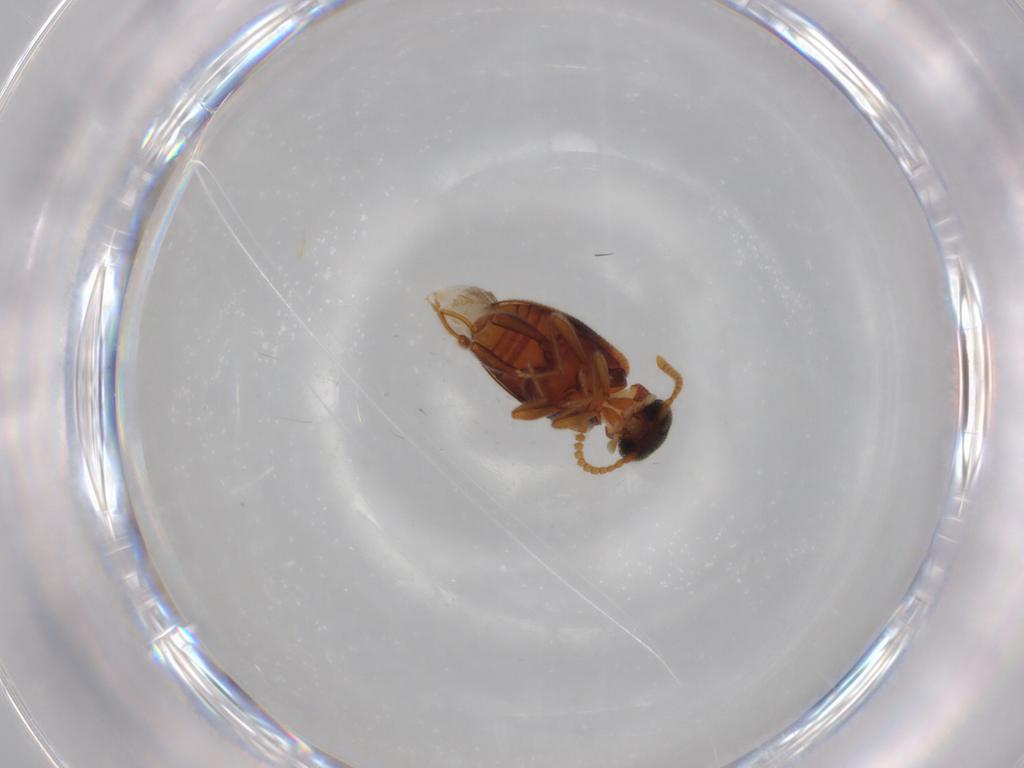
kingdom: Animalia
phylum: Arthropoda
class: Insecta
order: Coleoptera
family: Aderidae
